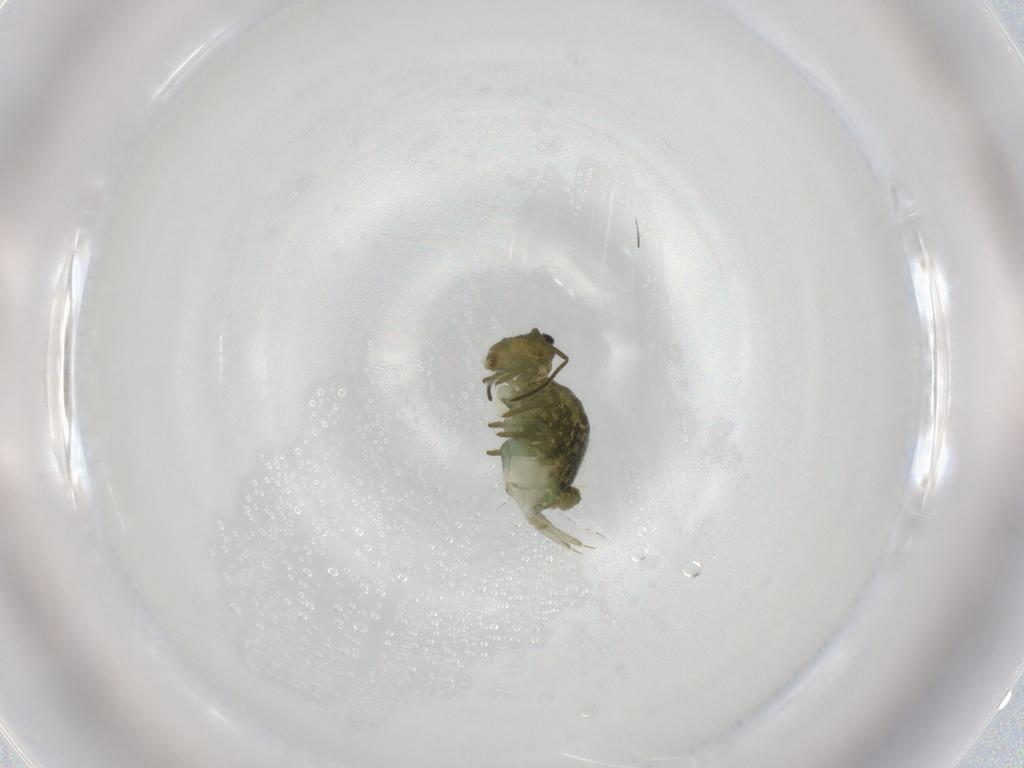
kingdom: Animalia
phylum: Arthropoda
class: Collembola
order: Symphypleona
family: Sminthuridae
